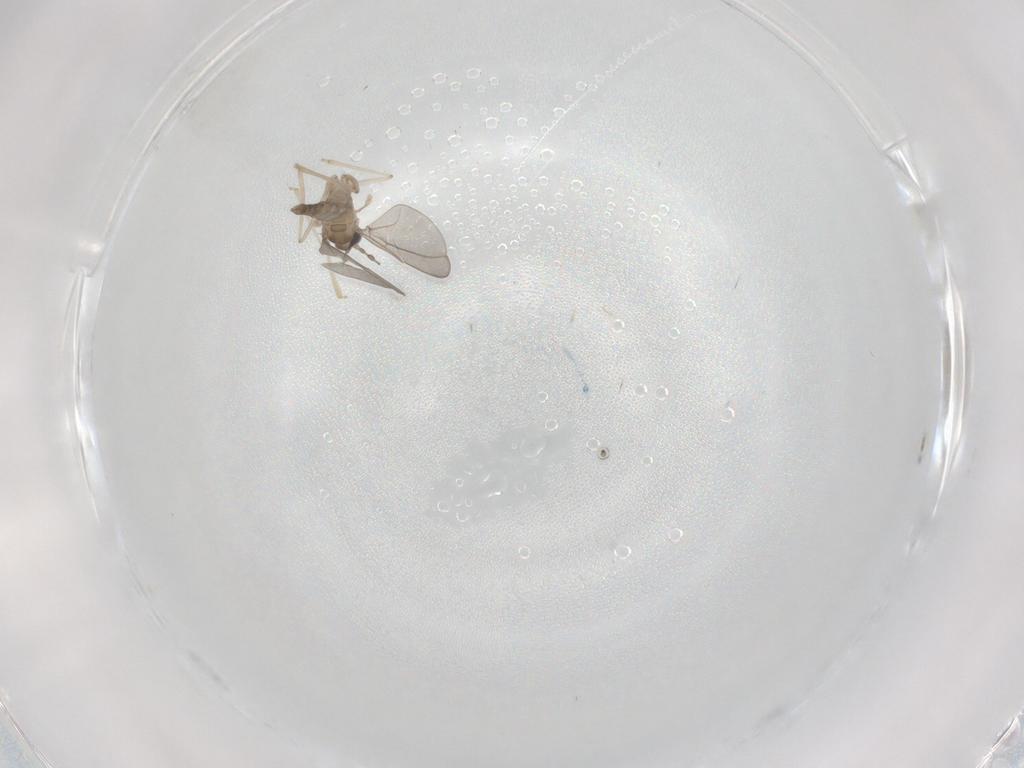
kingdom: Animalia
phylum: Arthropoda
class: Insecta
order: Diptera
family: Cecidomyiidae
